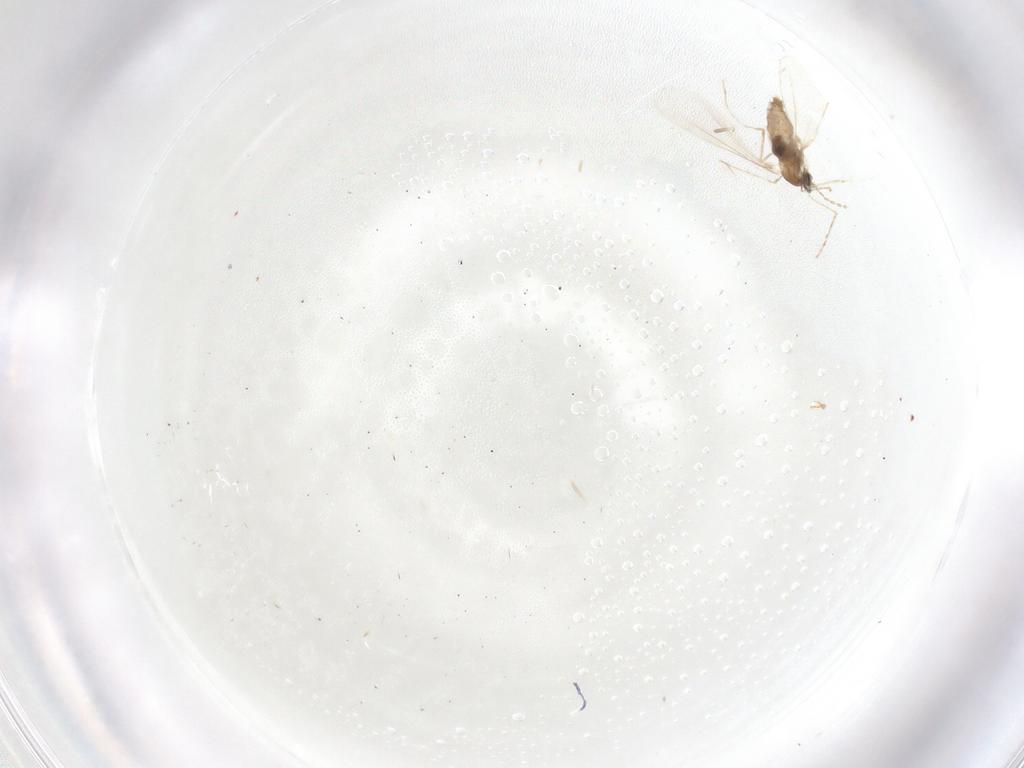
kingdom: Animalia
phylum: Arthropoda
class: Insecta
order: Diptera
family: Cecidomyiidae
